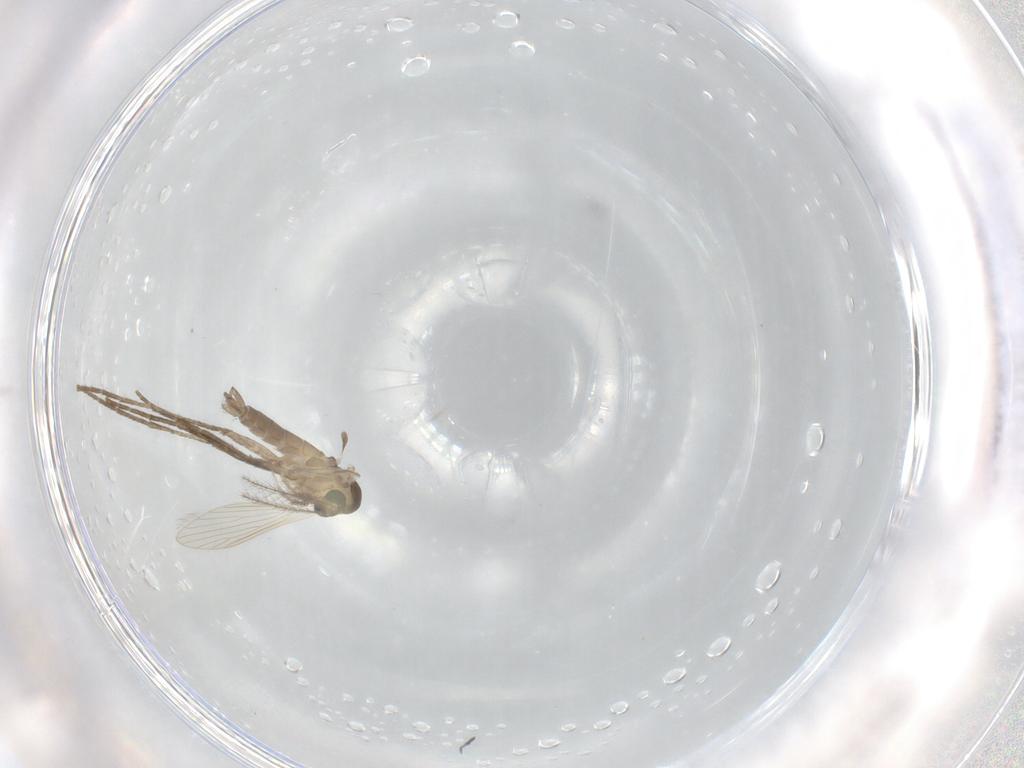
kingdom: Animalia
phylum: Arthropoda
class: Insecta
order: Diptera
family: Psychodidae
